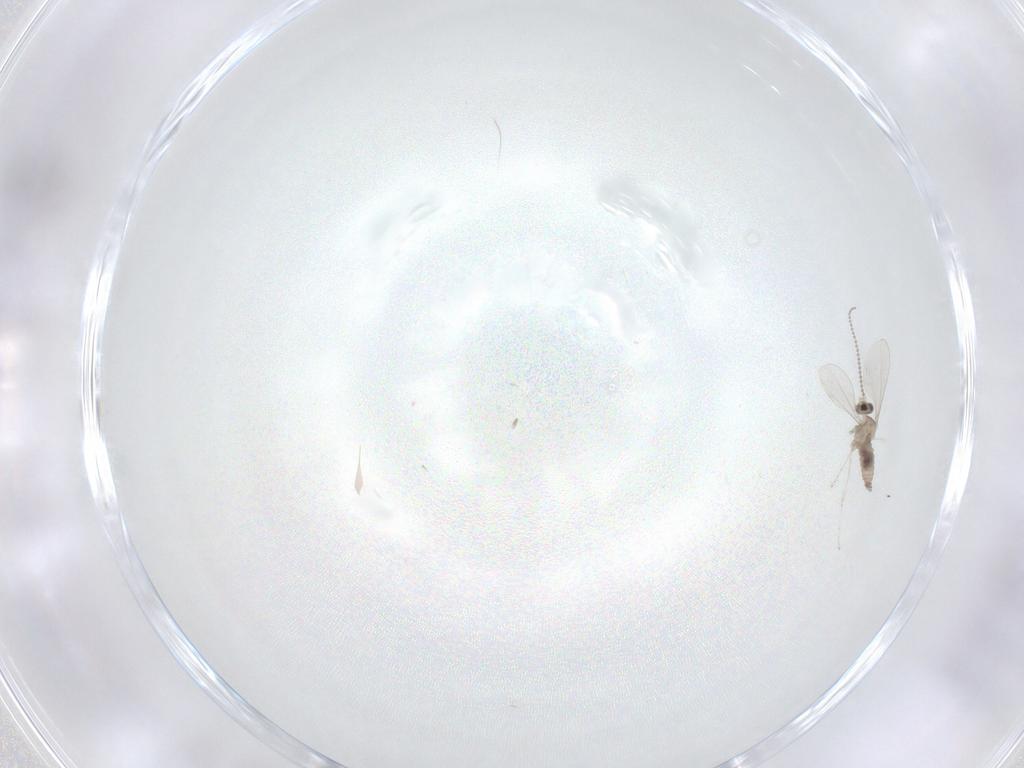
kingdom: Animalia
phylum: Arthropoda
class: Insecta
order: Diptera
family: Cecidomyiidae
